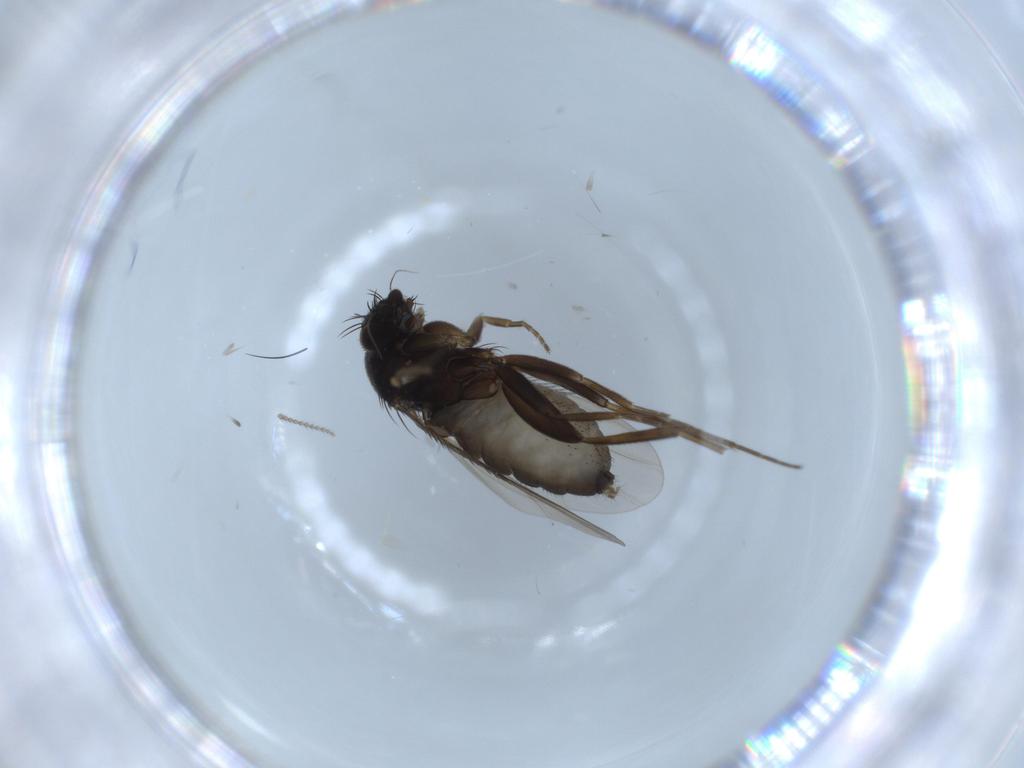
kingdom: Animalia
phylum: Arthropoda
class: Insecta
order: Diptera
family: Phoridae
